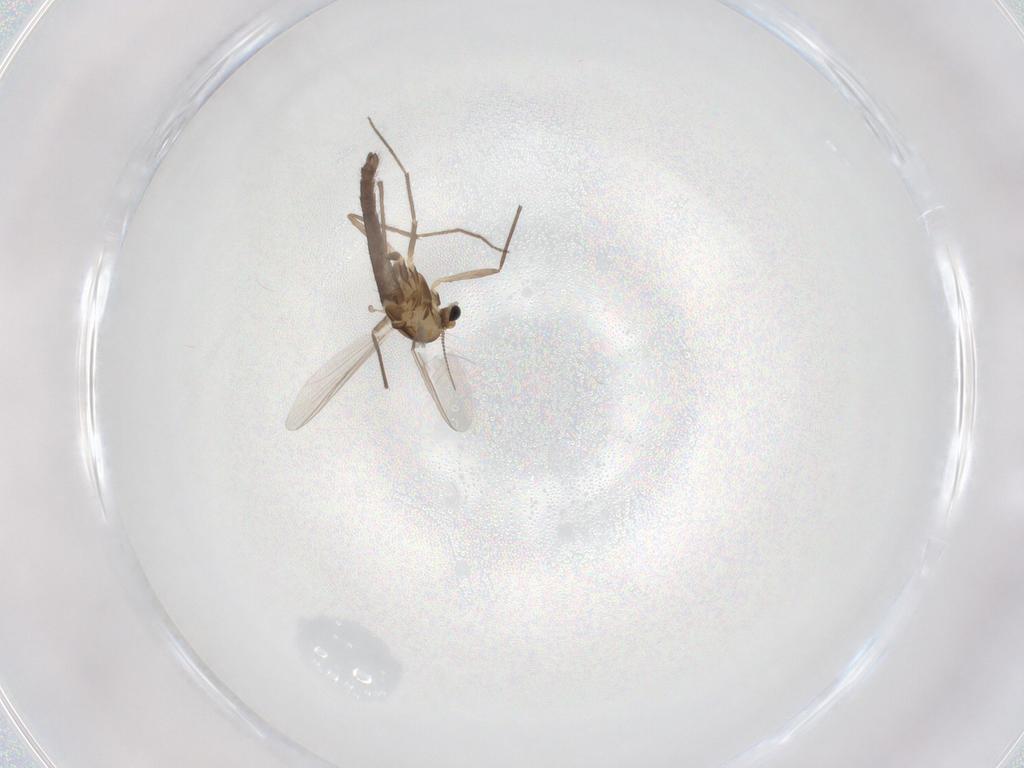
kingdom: Animalia
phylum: Arthropoda
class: Insecta
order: Diptera
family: Chironomidae
